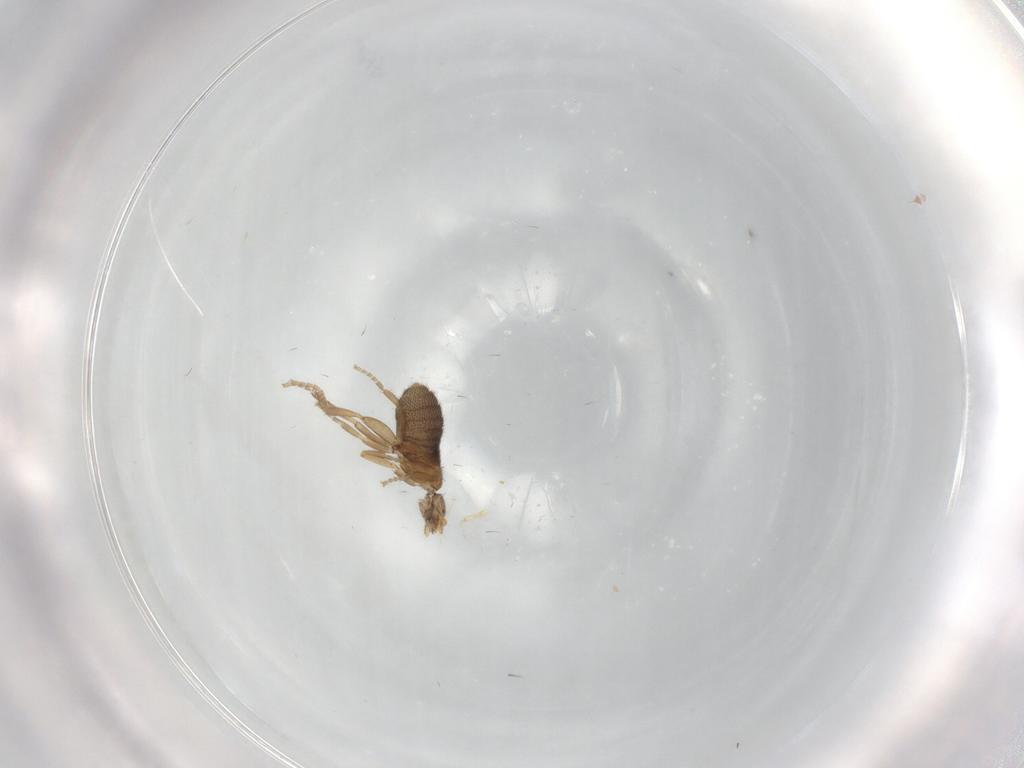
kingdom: Animalia
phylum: Arthropoda
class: Insecta
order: Diptera
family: Phoridae
